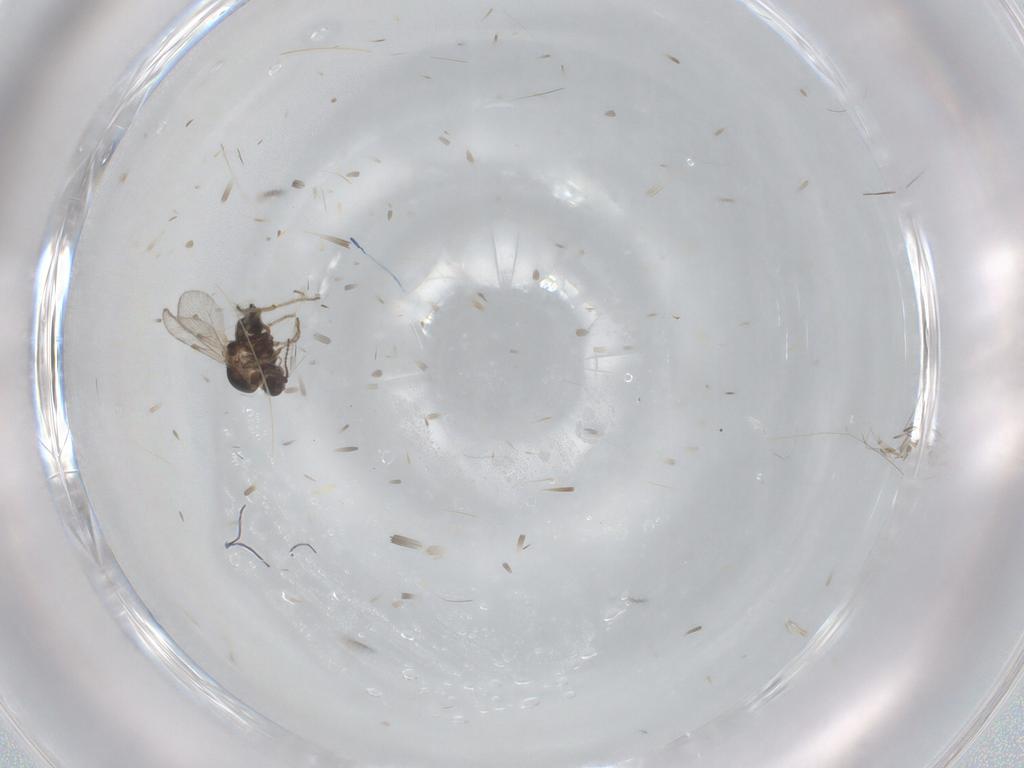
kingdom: Animalia
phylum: Arthropoda
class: Insecta
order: Diptera
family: Ceratopogonidae
